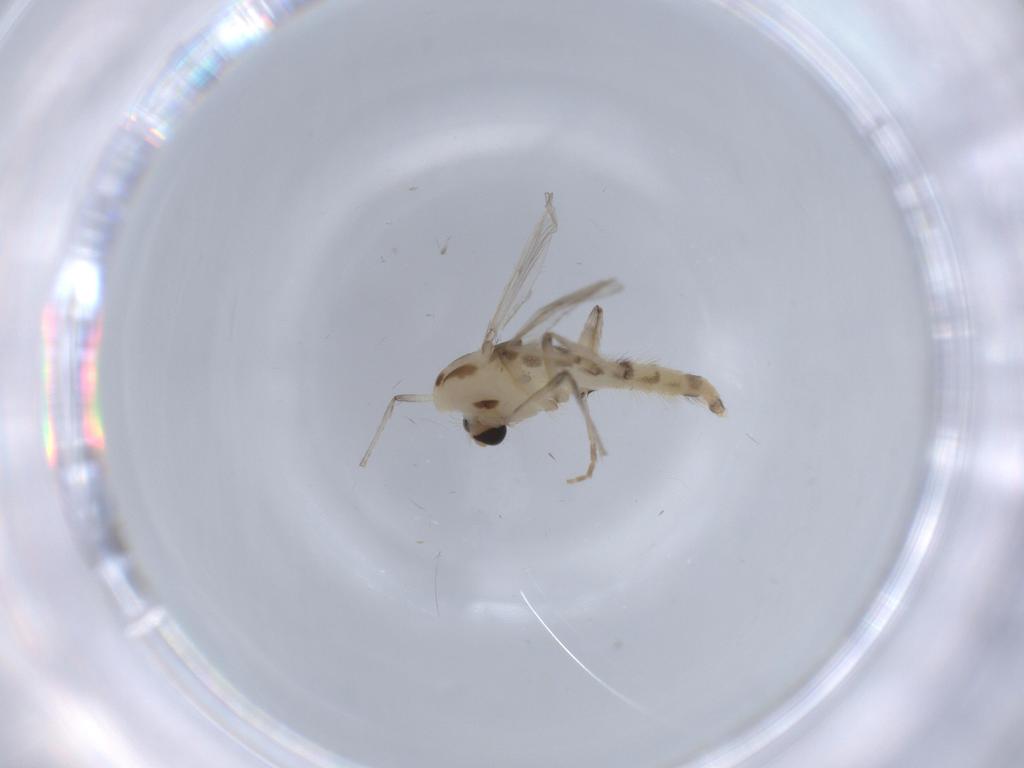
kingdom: Animalia
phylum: Arthropoda
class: Insecta
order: Diptera
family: Chironomidae
